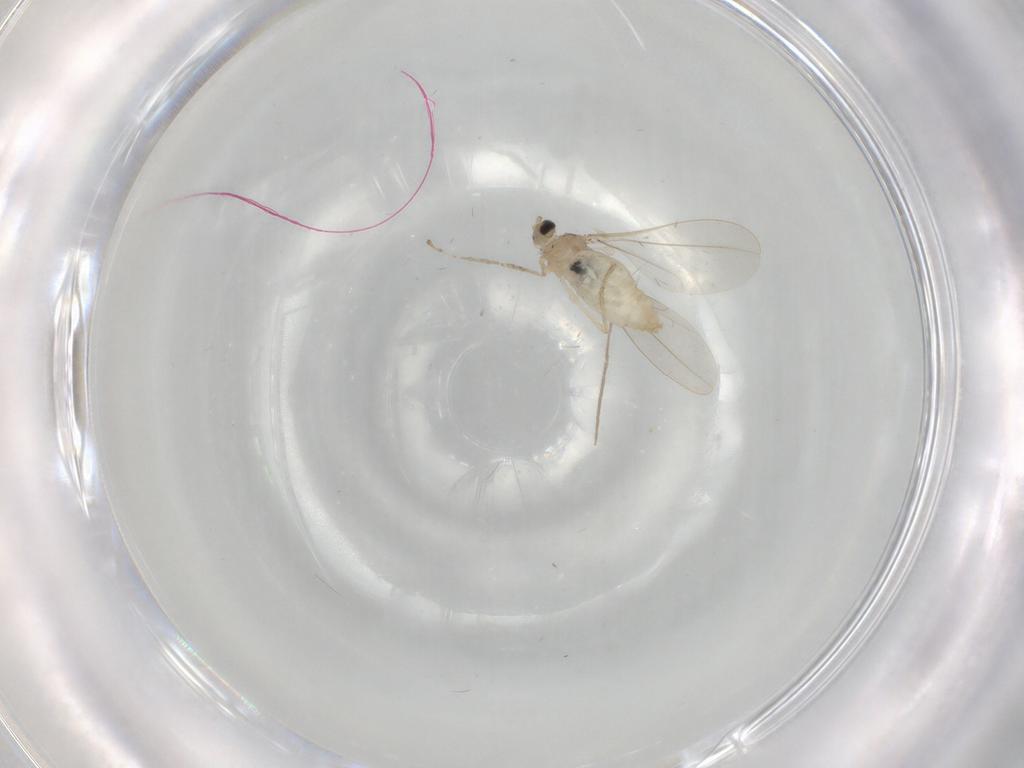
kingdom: Animalia
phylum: Arthropoda
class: Insecta
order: Diptera
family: Cecidomyiidae
